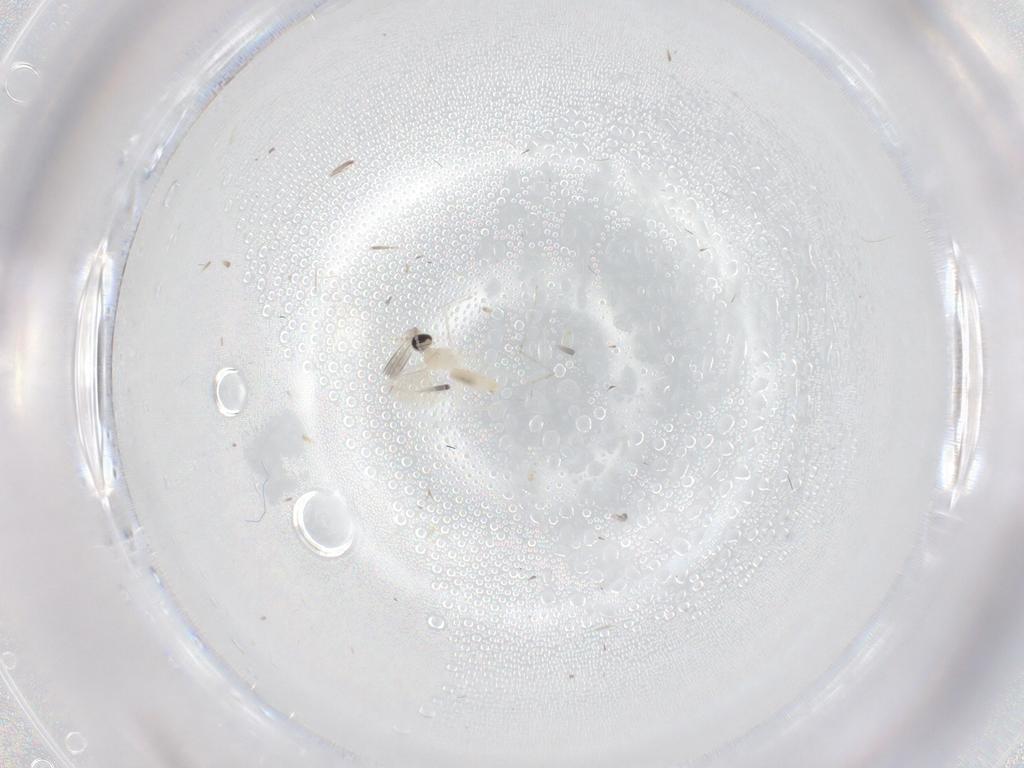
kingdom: Animalia
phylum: Arthropoda
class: Insecta
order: Diptera
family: Cecidomyiidae
